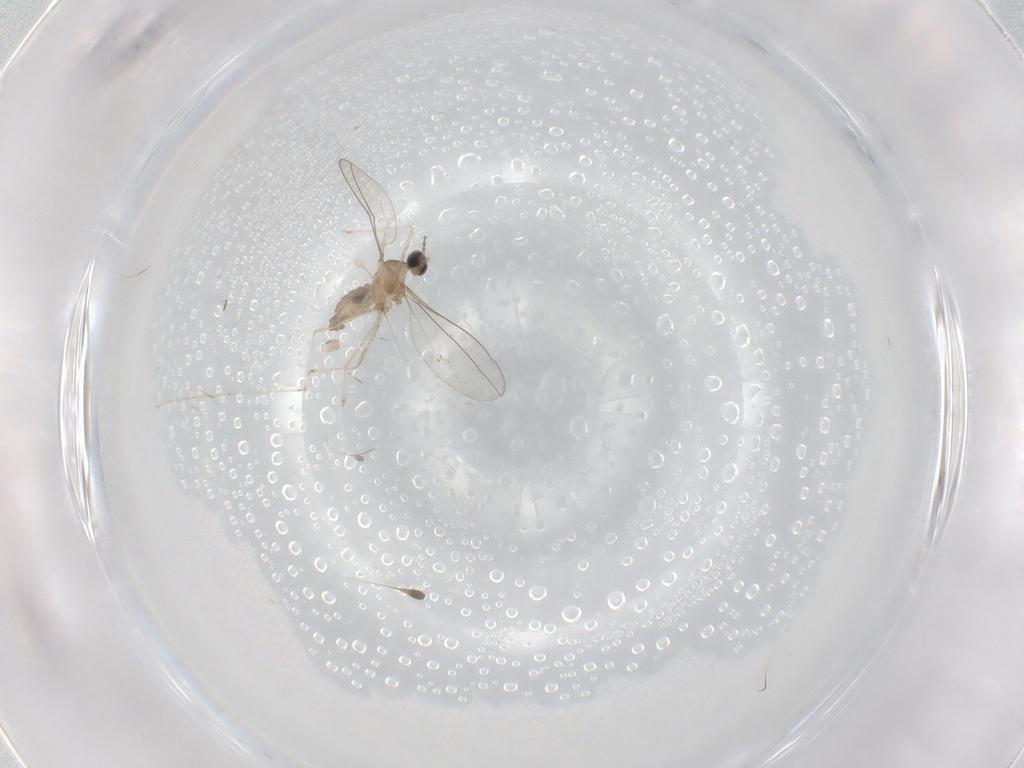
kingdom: Animalia
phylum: Arthropoda
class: Insecta
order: Diptera
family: Cecidomyiidae
